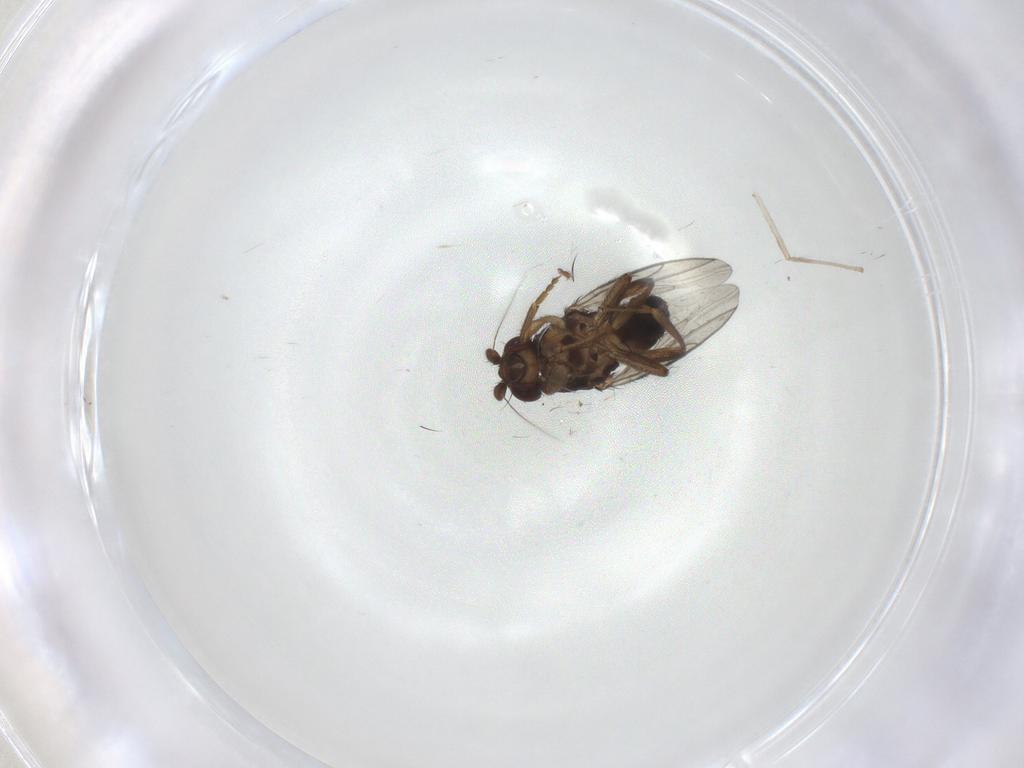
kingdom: Animalia
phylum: Arthropoda
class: Insecta
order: Diptera
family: Sphaeroceridae
